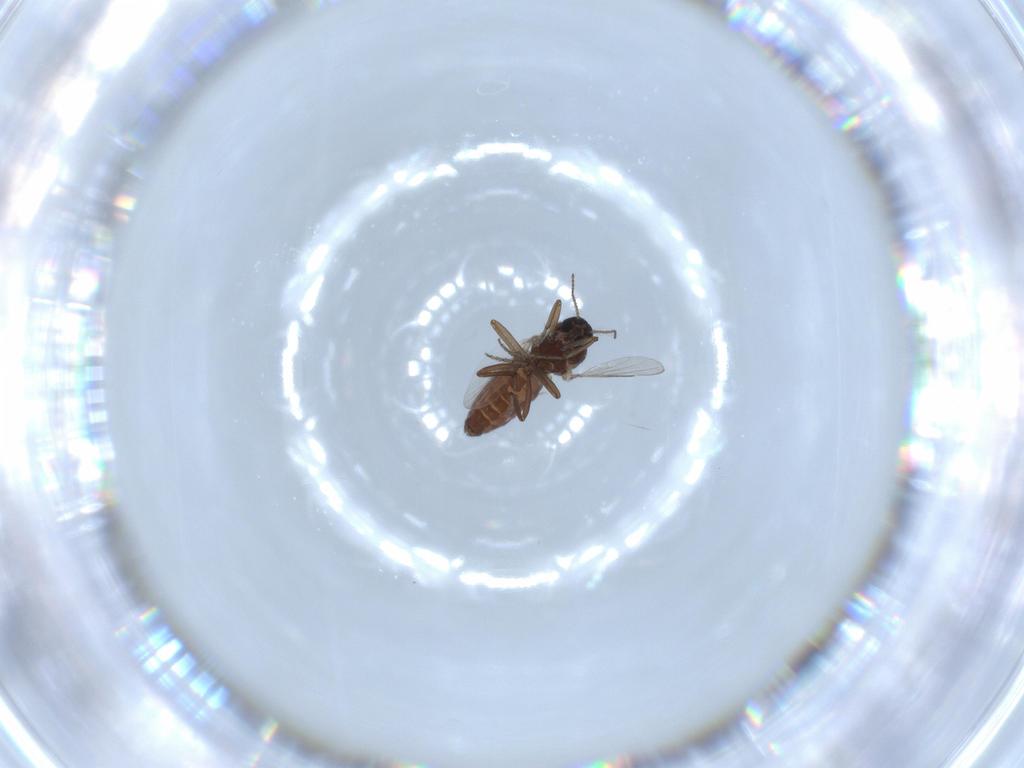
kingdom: Animalia
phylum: Arthropoda
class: Insecta
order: Diptera
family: Ceratopogonidae
